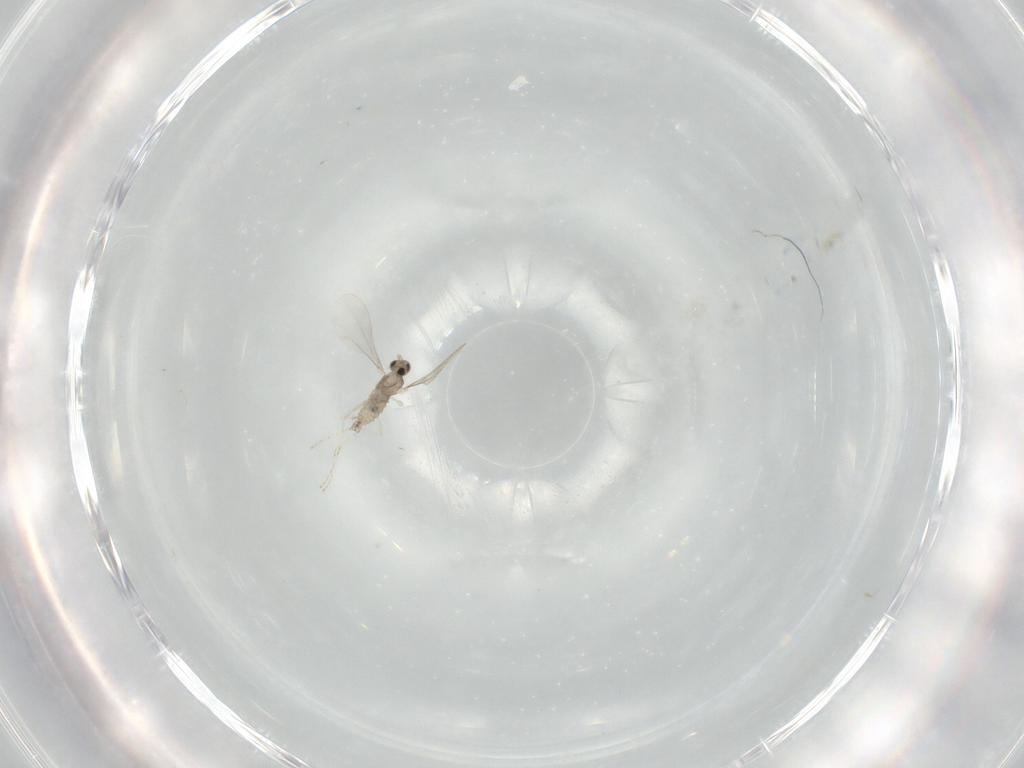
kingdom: Animalia
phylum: Arthropoda
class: Insecta
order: Diptera
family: Cecidomyiidae
